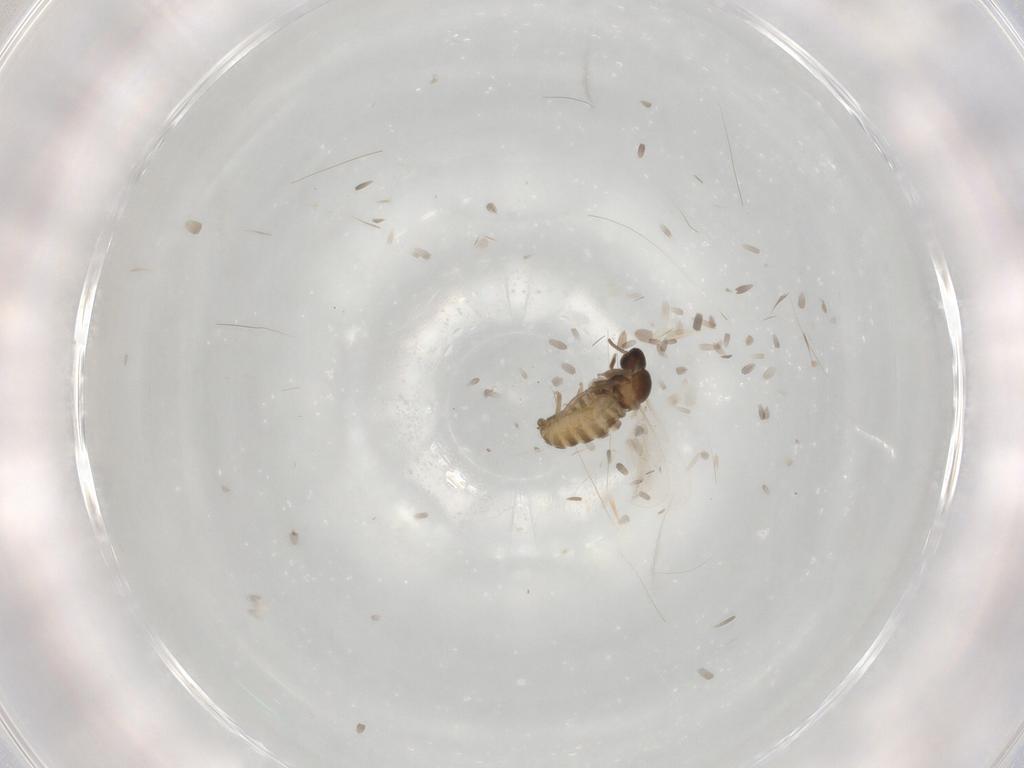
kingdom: Animalia
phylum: Arthropoda
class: Insecta
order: Diptera
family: Cecidomyiidae
